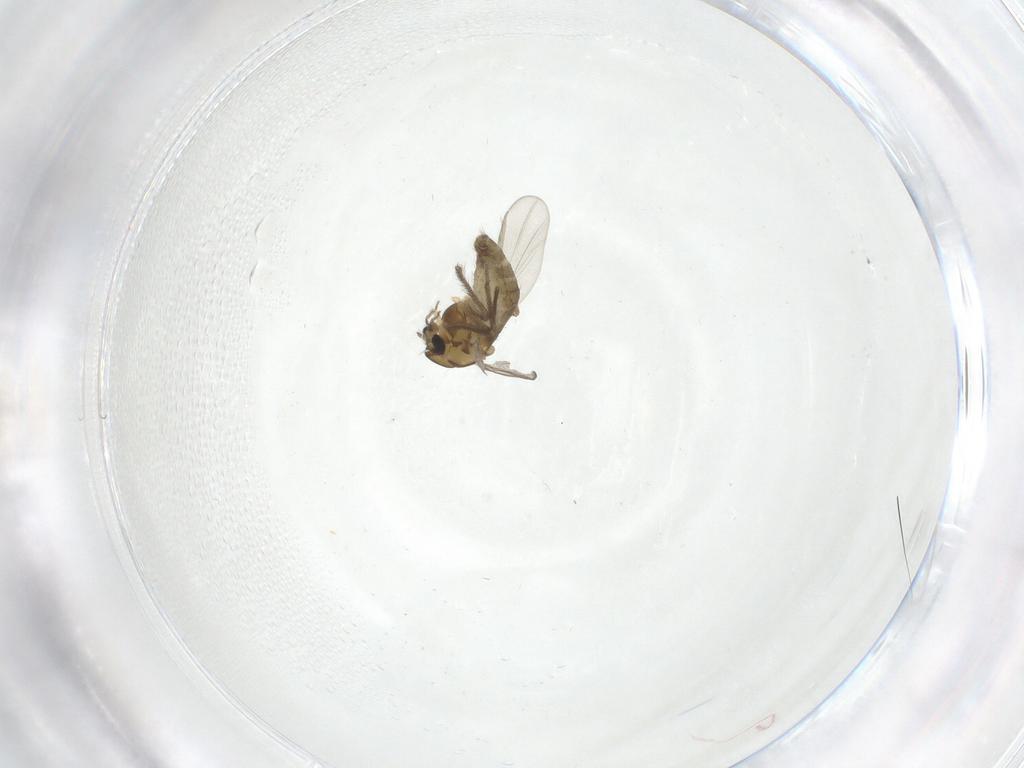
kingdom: Animalia
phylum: Arthropoda
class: Insecta
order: Diptera
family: Chironomidae
